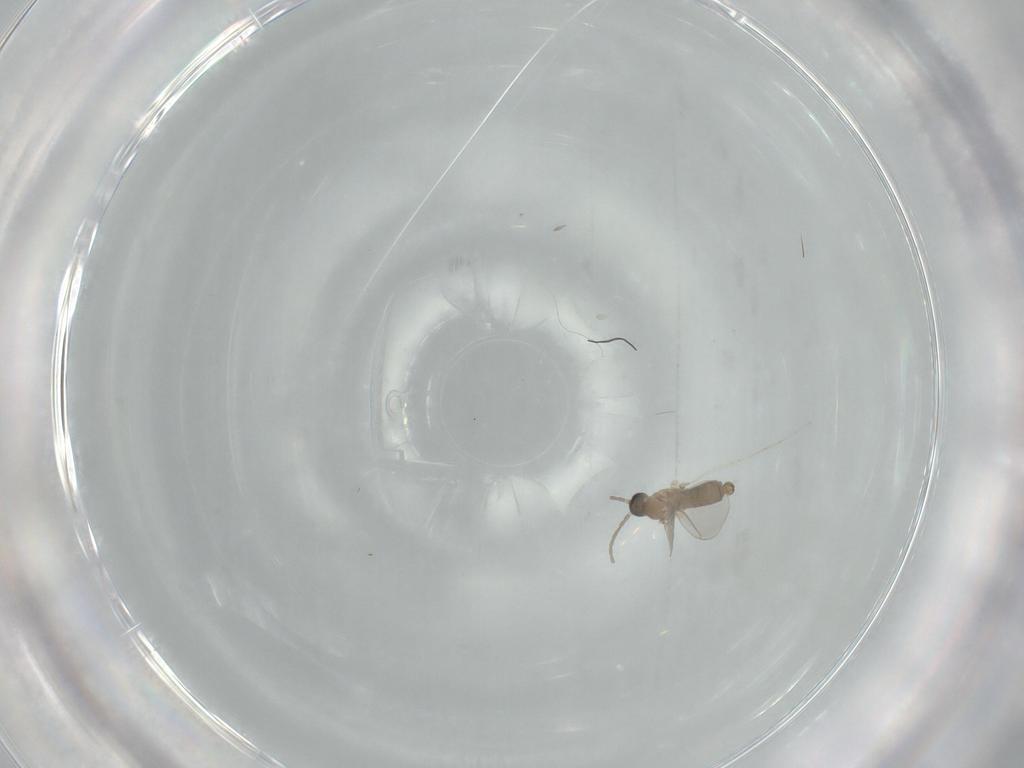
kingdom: Animalia
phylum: Arthropoda
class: Insecta
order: Diptera
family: Cecidomyiidae
